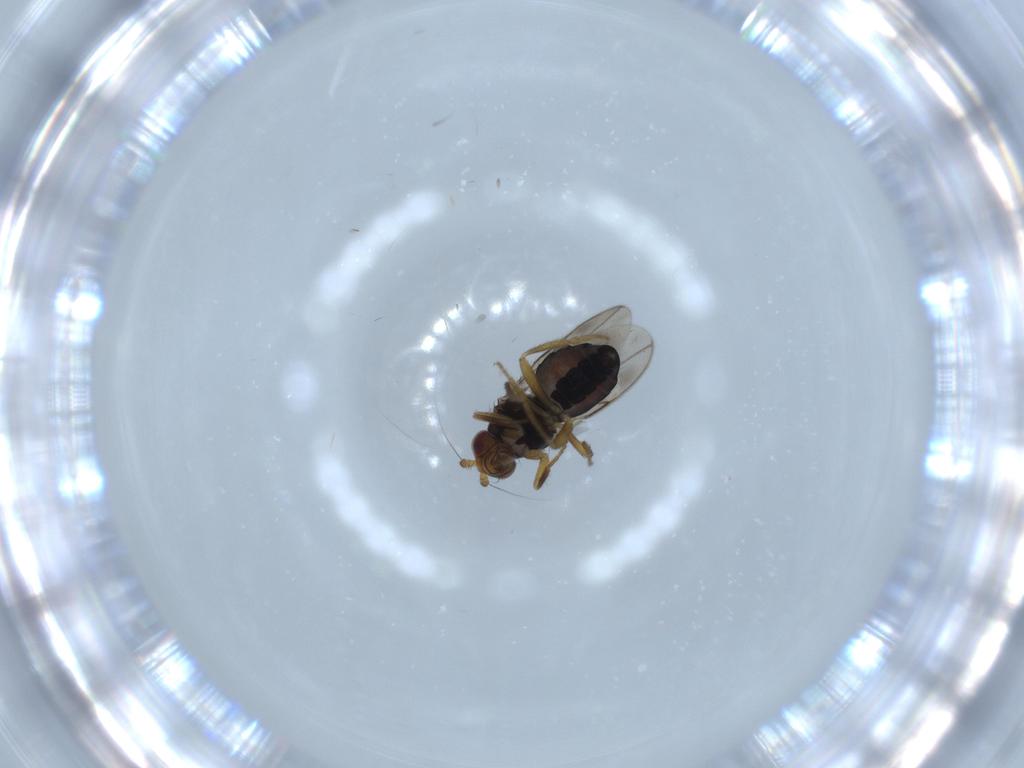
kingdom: Animalia
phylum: Arthropoda
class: Insecta
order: Diptera
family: Sphaeroceridae
